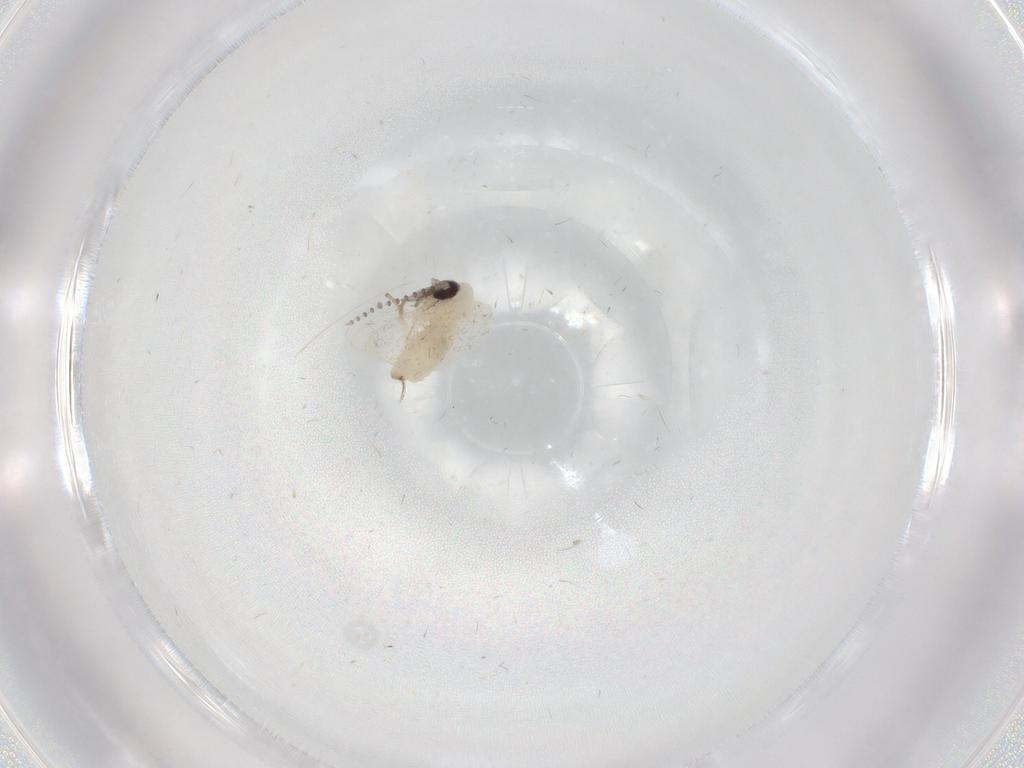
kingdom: Animalia
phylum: Arthropoda
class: Insecta
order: Diptera
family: Psychodidae
